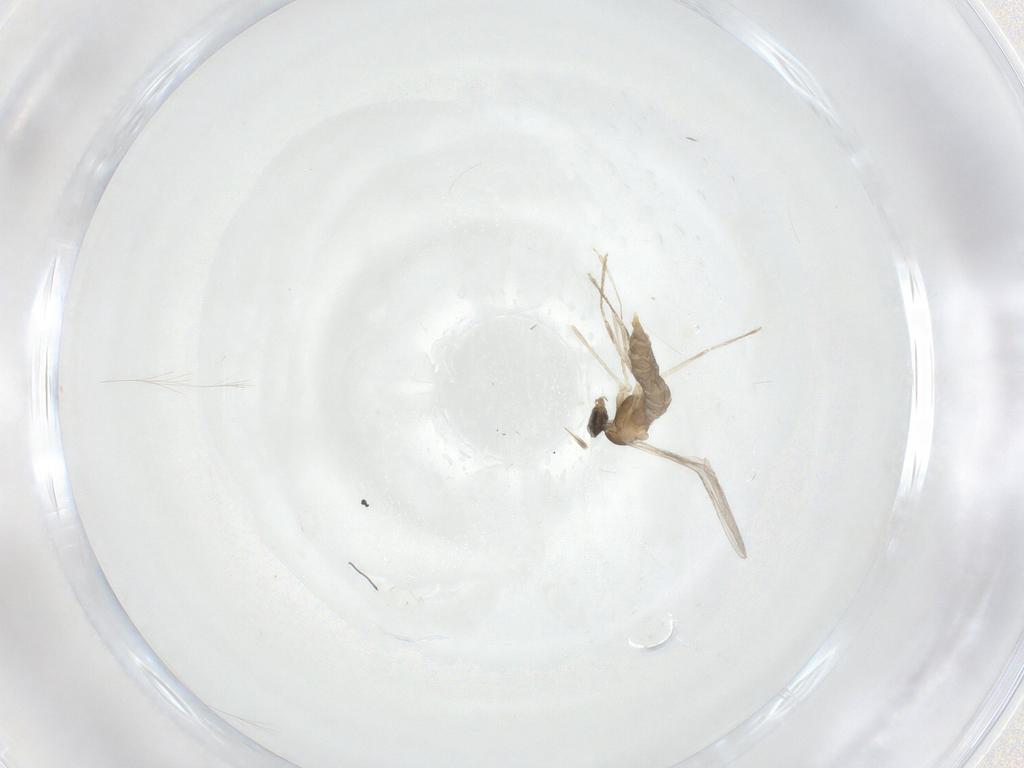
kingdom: Animalia
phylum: Arthropoda
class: Insecta
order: Diptera
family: Cecidomyiidae
